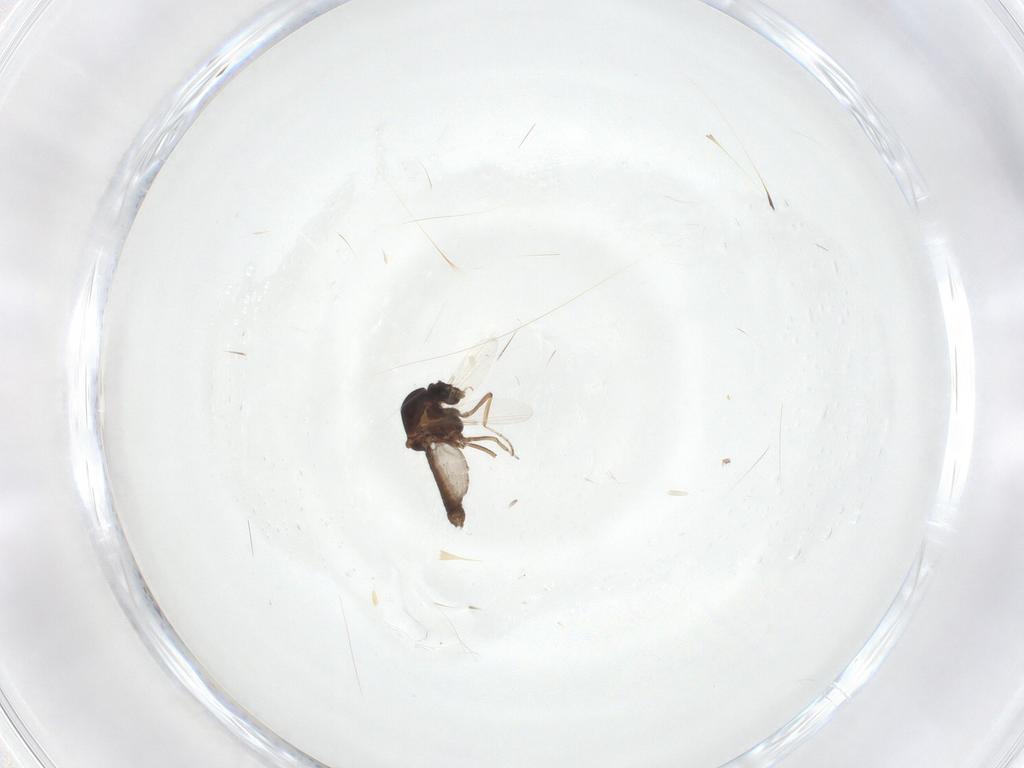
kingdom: Animalia
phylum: Arthropoda
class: Insecta
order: Diptera
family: Ceratopogonidae
